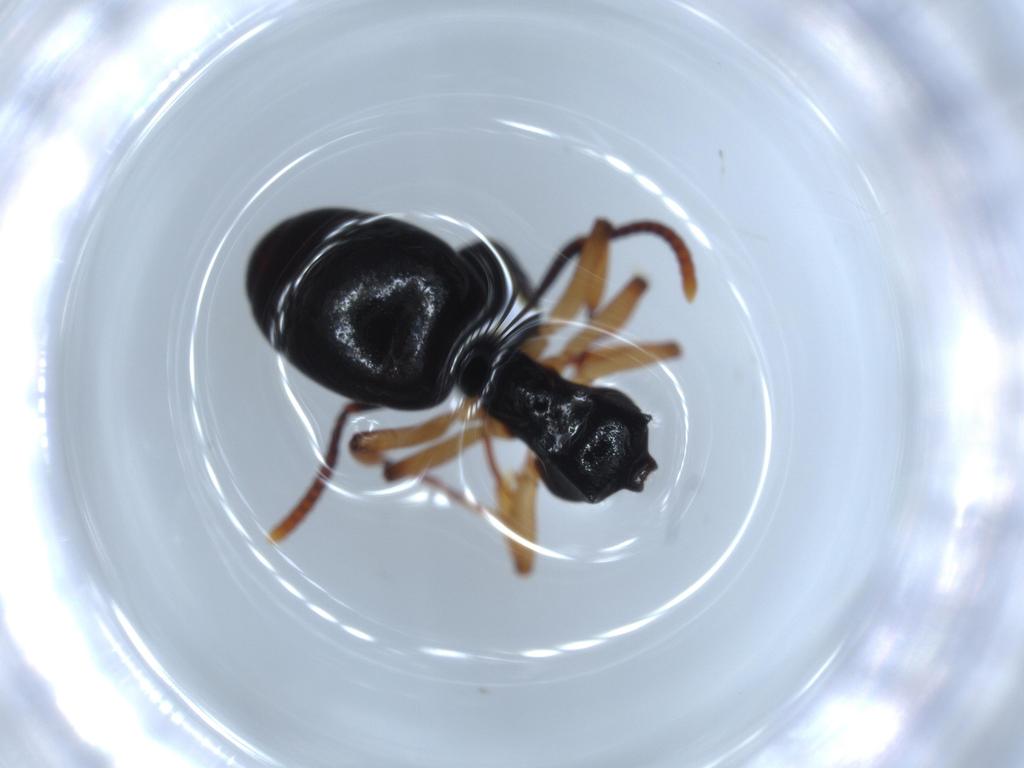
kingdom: Animalia
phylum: Arthropoda
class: Insecta
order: Hymenoptera
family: Formicidae
